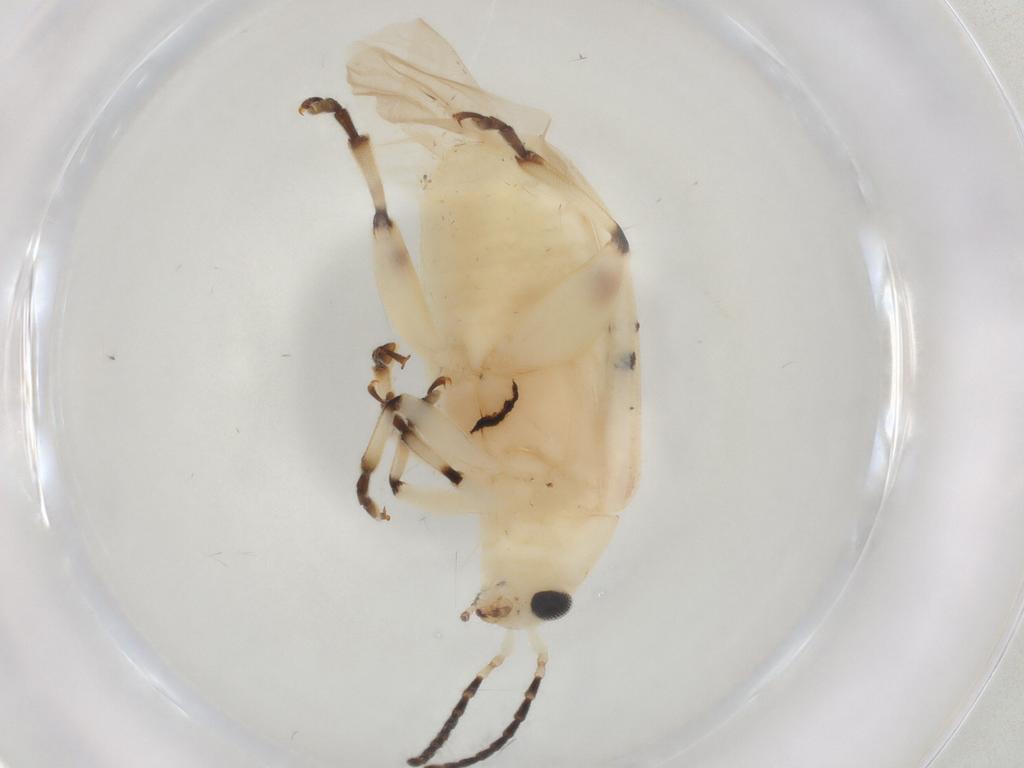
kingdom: Animalia
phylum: Arthropoda
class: Insecta
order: Coleoptera
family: Chrysomelidae
